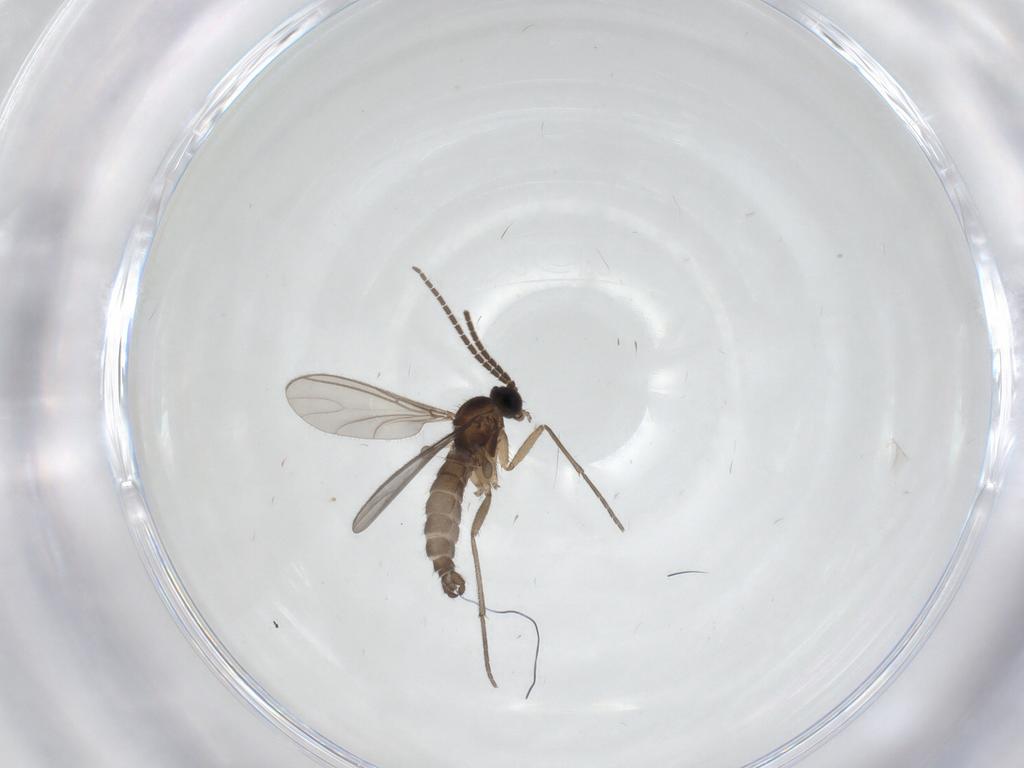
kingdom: Animalia
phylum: Arthropoda
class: Insecta
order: Diptera
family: Sciaridae
